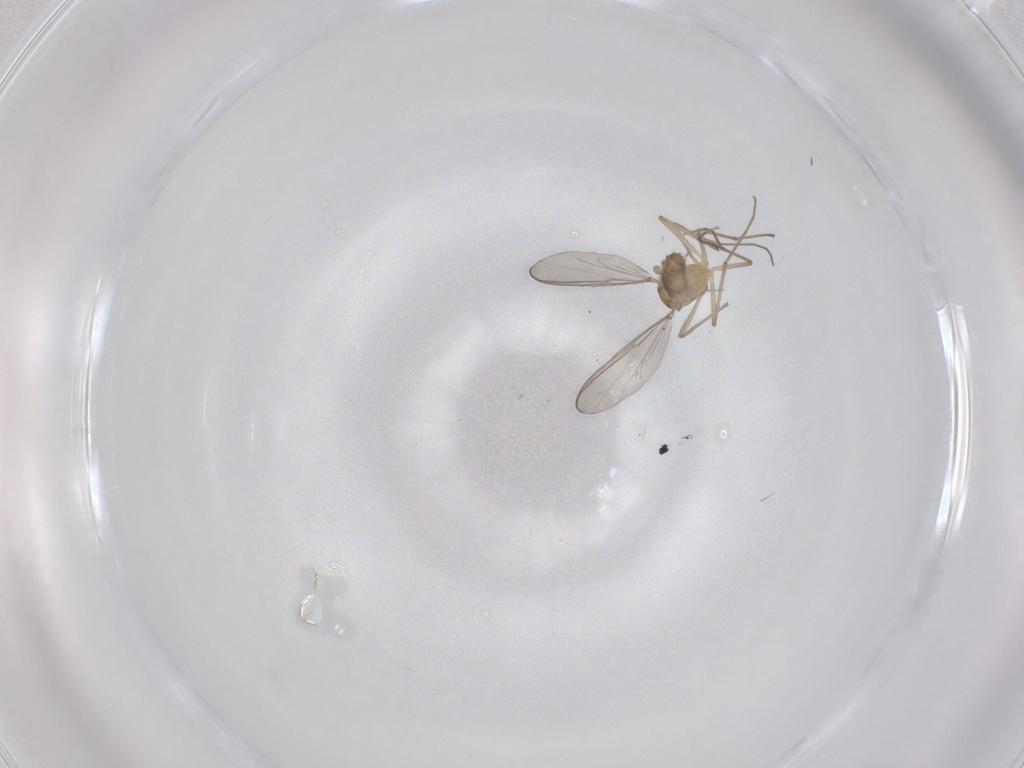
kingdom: Animalia
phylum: Arthropoda
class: Insecta
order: Diptera
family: Chironomidae
